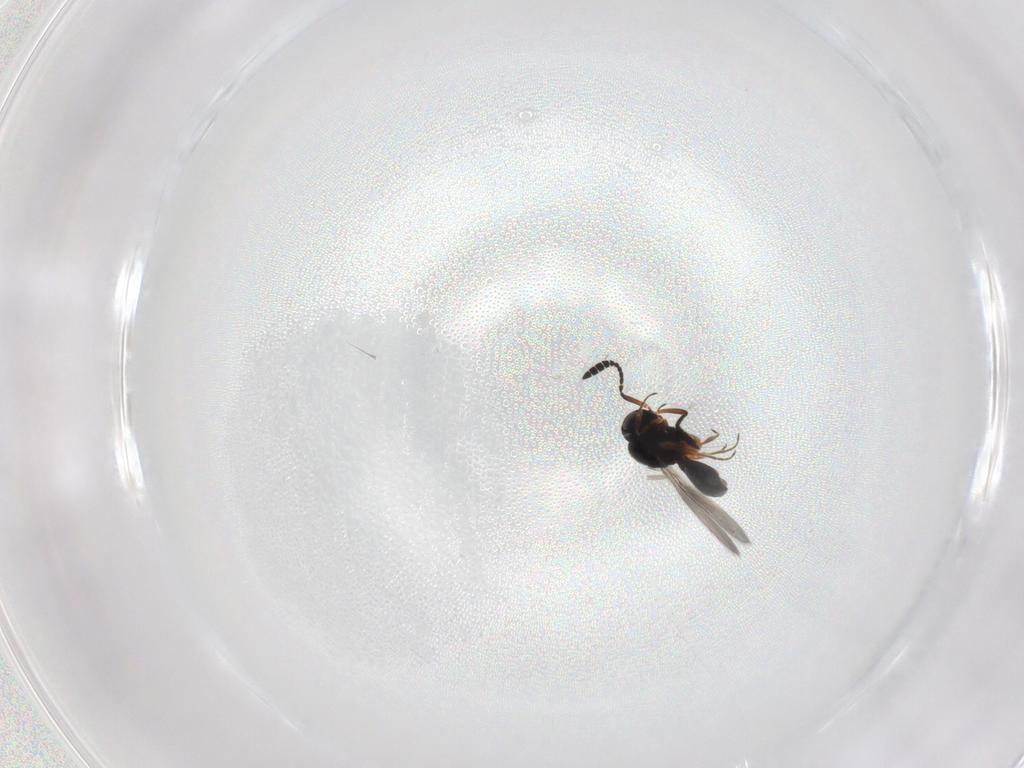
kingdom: Animalia
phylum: Arthropoda
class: Insecta
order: Hymenoptera
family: Scelionidae
